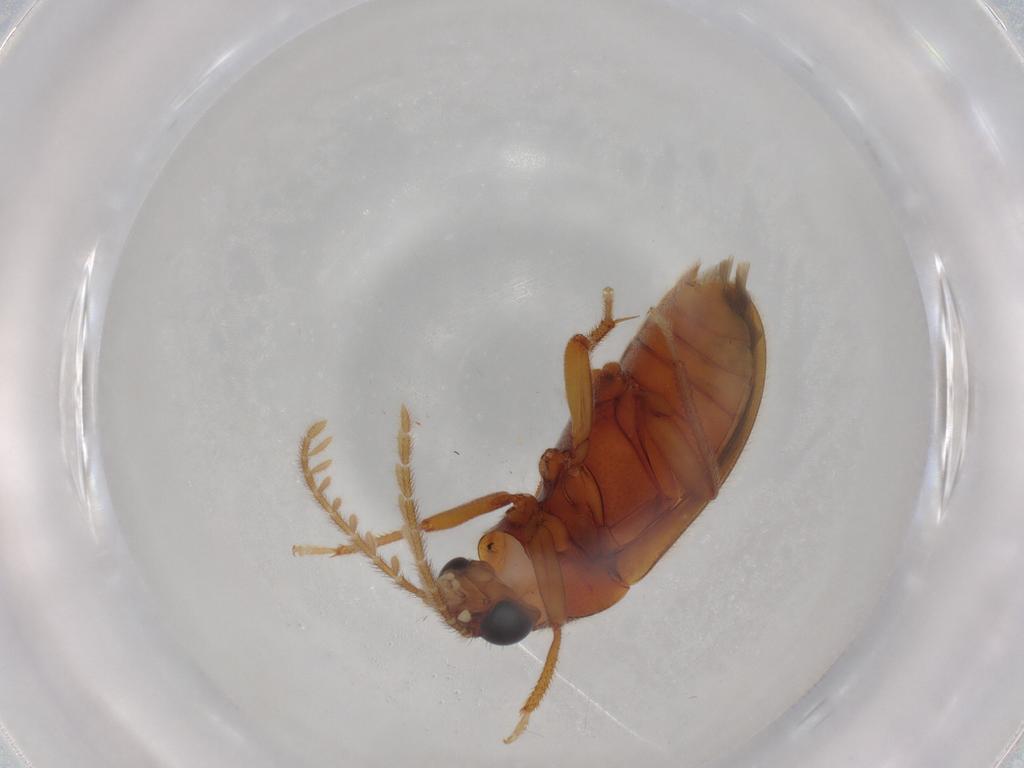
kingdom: Animalia
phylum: Arthropoda
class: Insecta
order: Coleoptera
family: Ptilodactylidae
